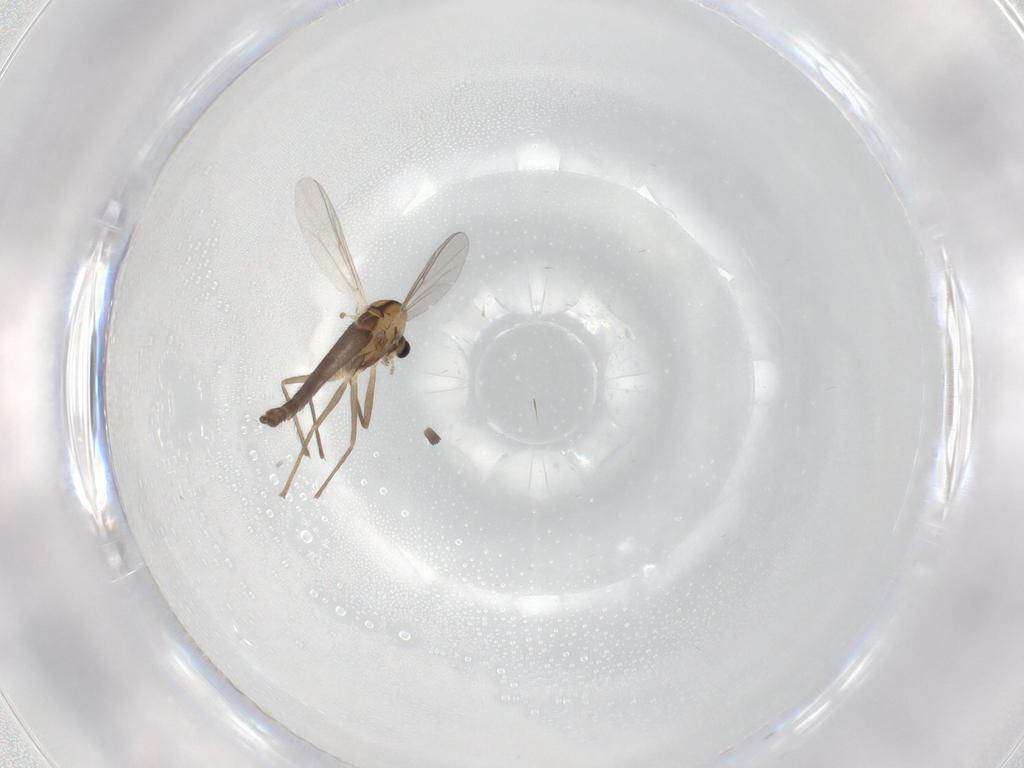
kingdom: Animalia
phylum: Arthropoda
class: Insecta
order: Diptera
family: Chironomidae
